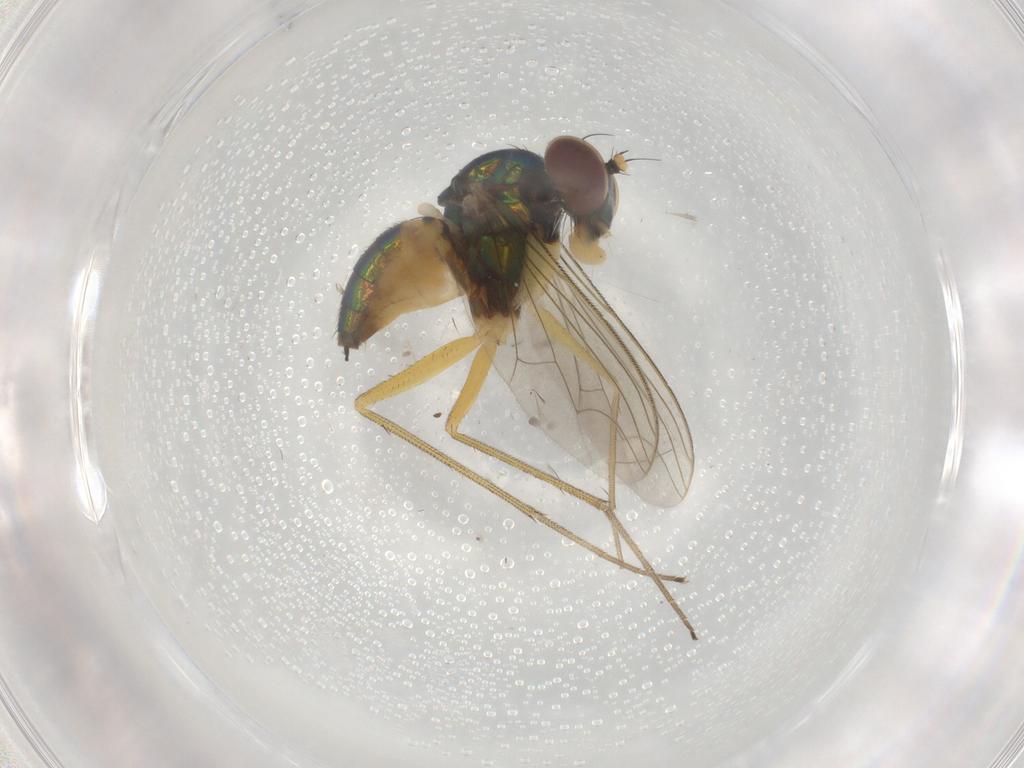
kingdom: Animalia
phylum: Arthropoda
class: Insecta
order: Diptera
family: Dolichopodidae
